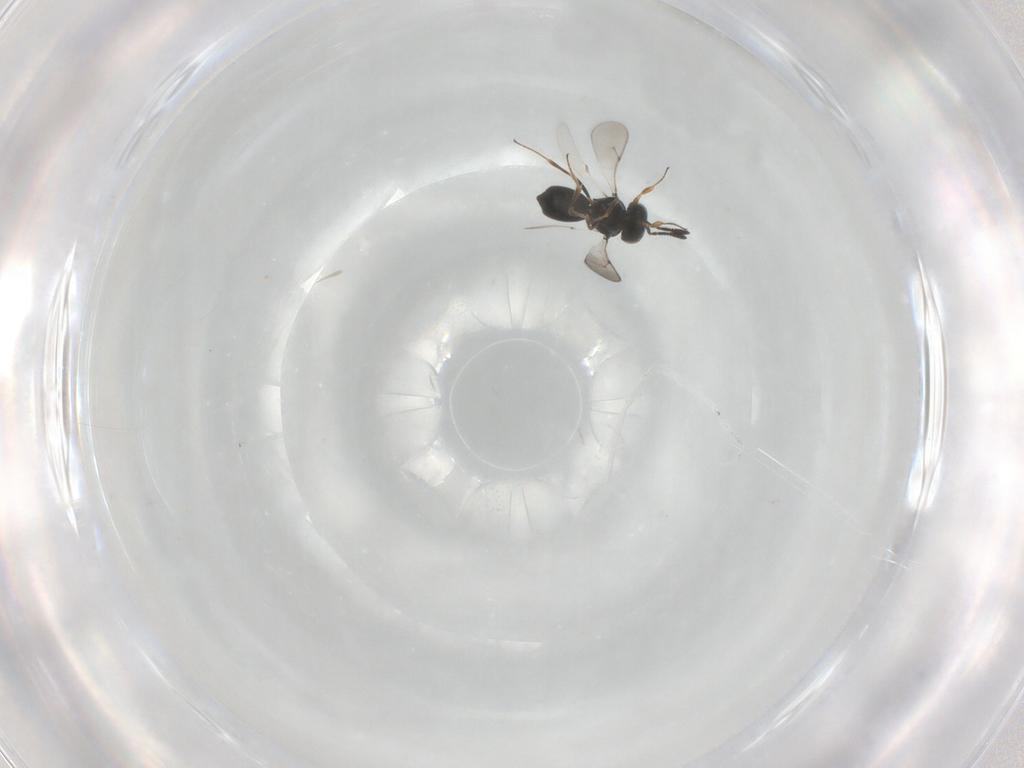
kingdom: Animalia
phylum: Arthropoda
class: Insecta
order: Hymenoptera
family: Scelionidae
